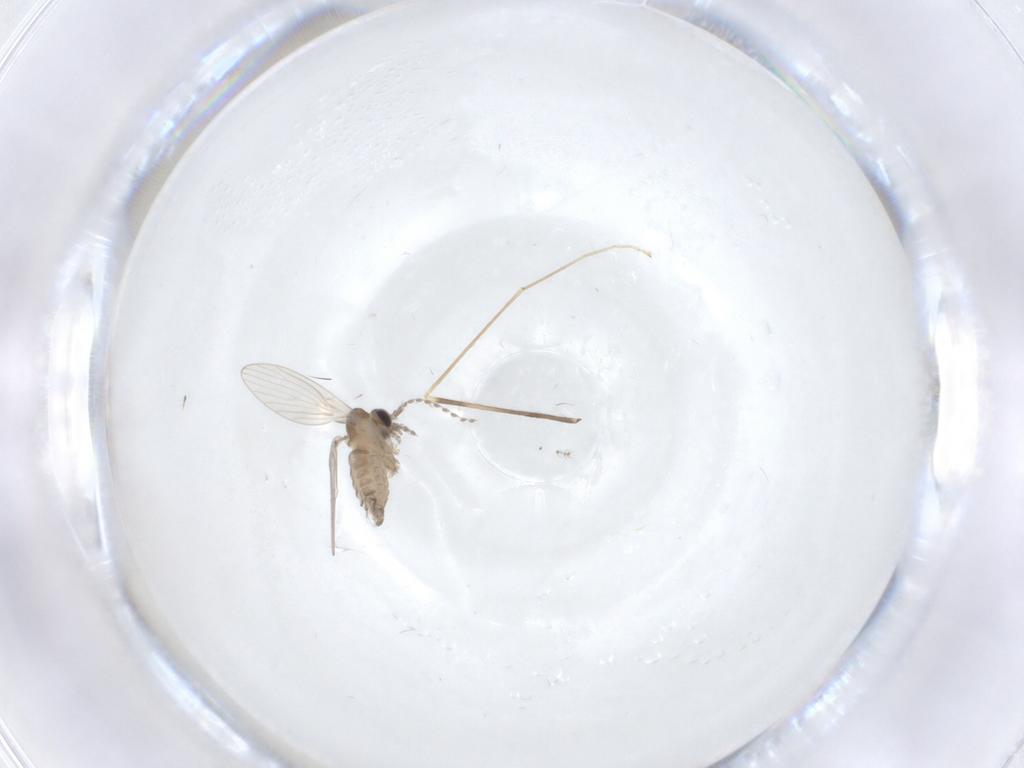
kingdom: Animalia
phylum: Arthropoda
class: Insecta
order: Diptera
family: Limoniidae
